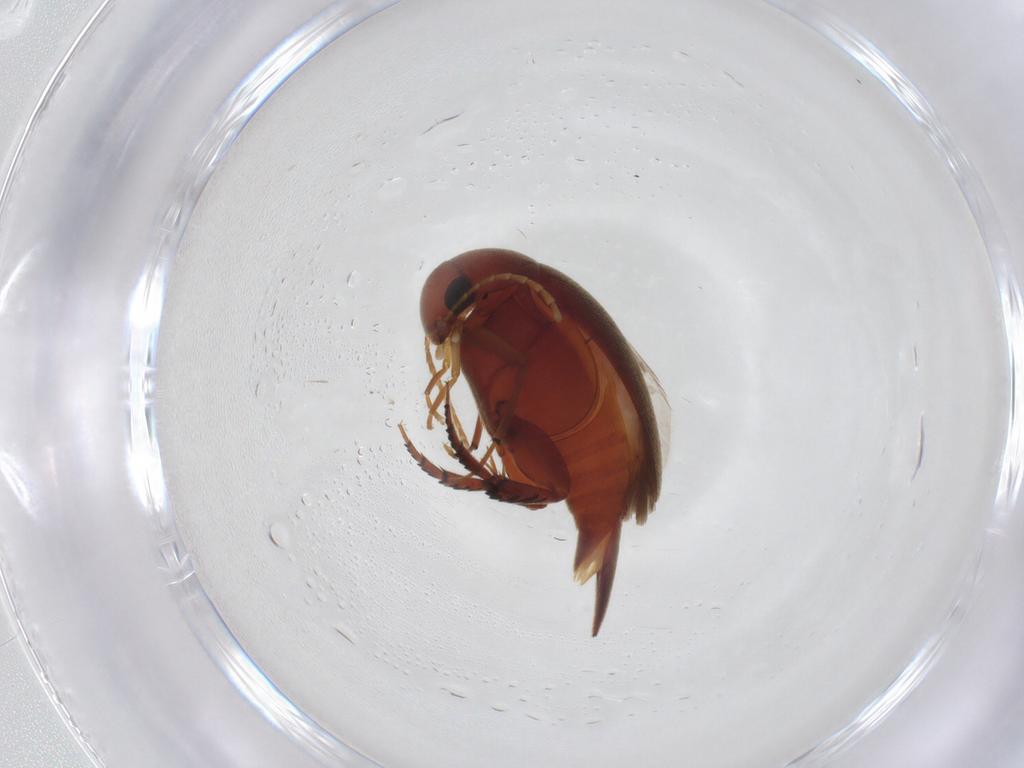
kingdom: Animalia
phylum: Arthropoda
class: Insecta
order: Coleoptera
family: Mordellidae
